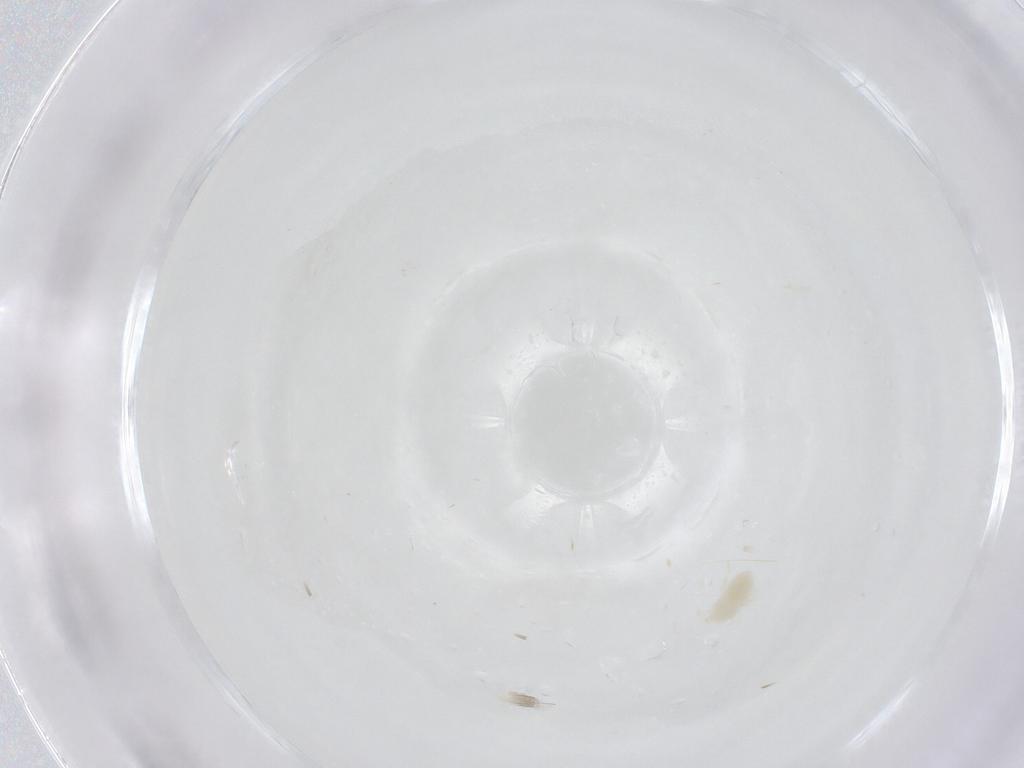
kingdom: Animalia
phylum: Arthropoda
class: Arachnida
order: Trombidiformes
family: Eupodidae
